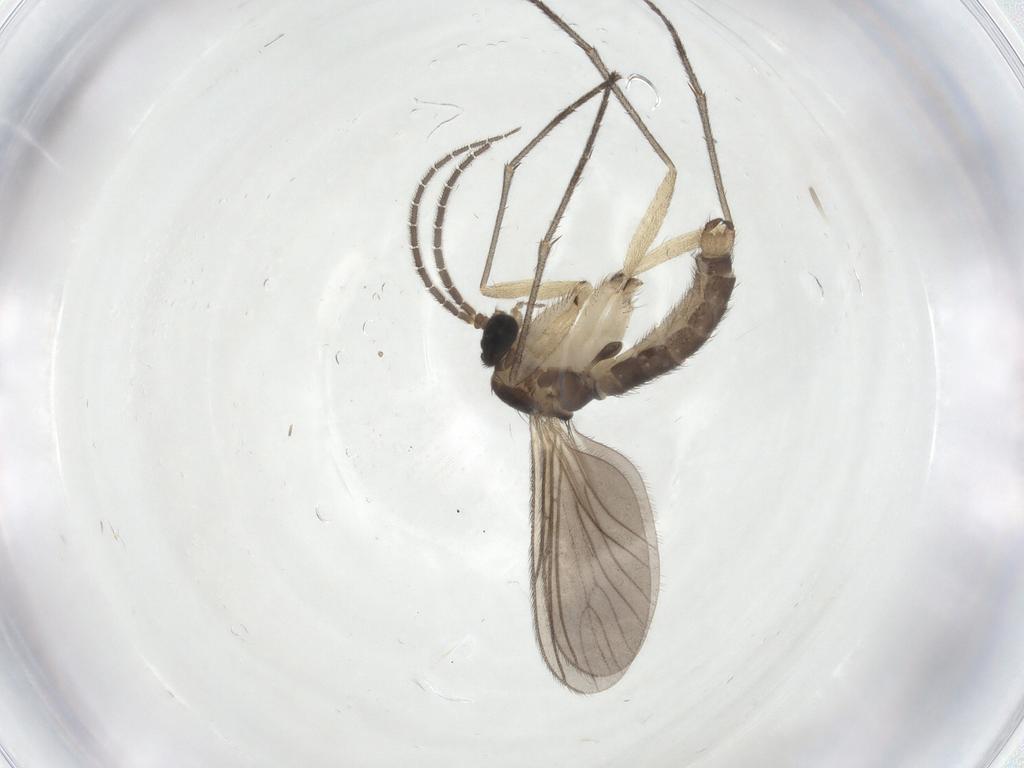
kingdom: Animalia
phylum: Arthropoda
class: Insecta
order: Diptera
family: Sciaridae
